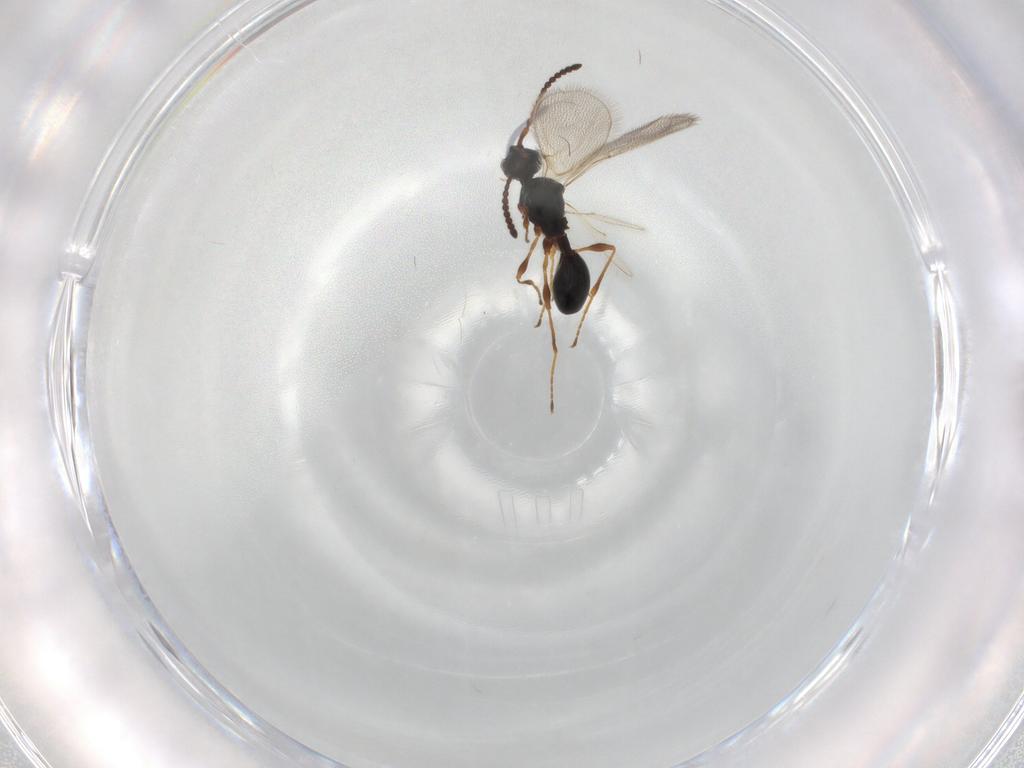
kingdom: Animalia
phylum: Arthropoda
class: Insecta
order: Hymenoptera
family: Diapriidae
